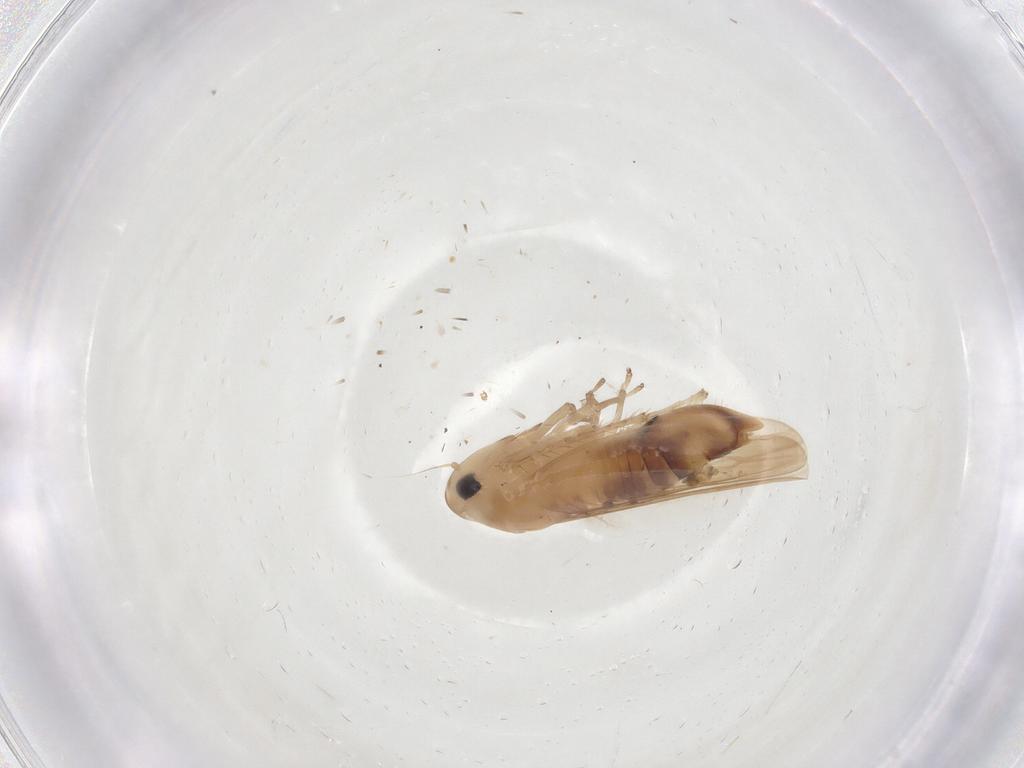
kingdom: Animalia
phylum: Arthropoda
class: Insecta
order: Hemiptera
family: Cicadellidae
